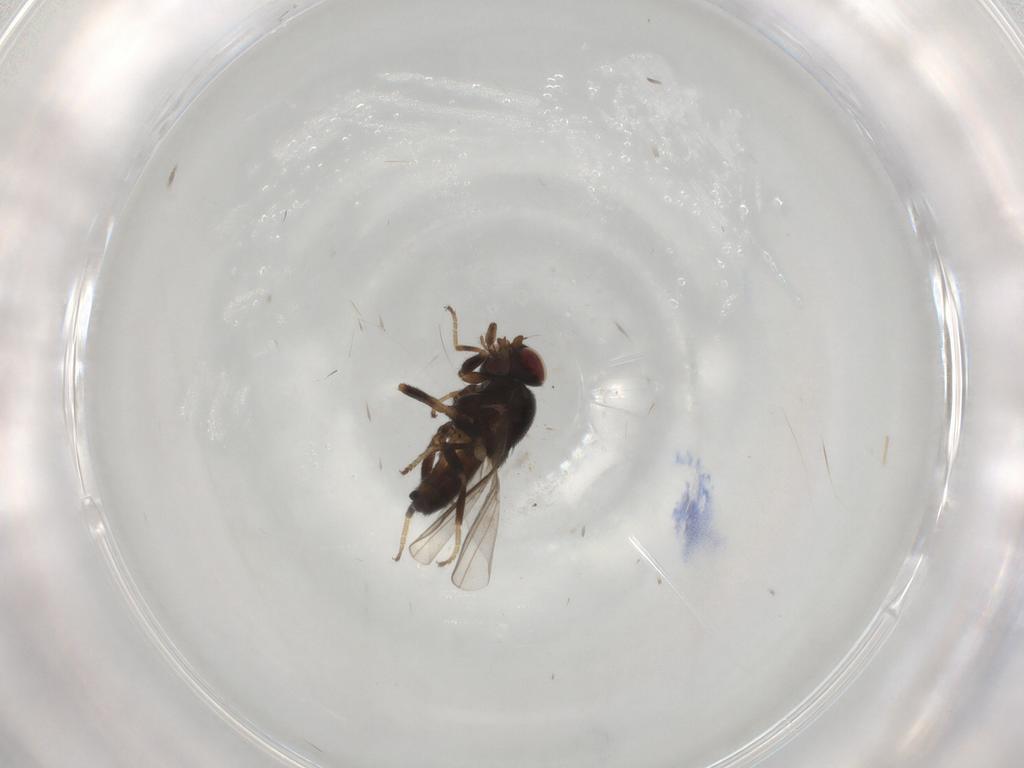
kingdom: Animalia
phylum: Arthropoda
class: Insecta
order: Diptera
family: Chloropidae
